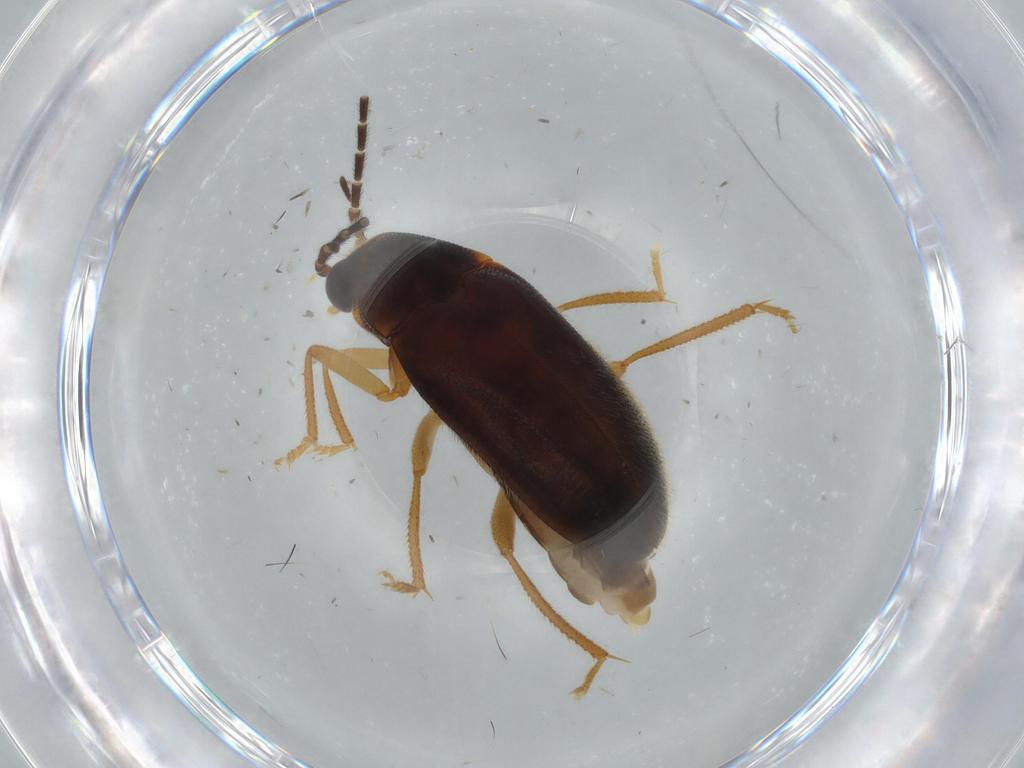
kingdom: Animalia
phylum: Arthropoda
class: Insecta
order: Coleoptera
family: Ptilodactylidae
